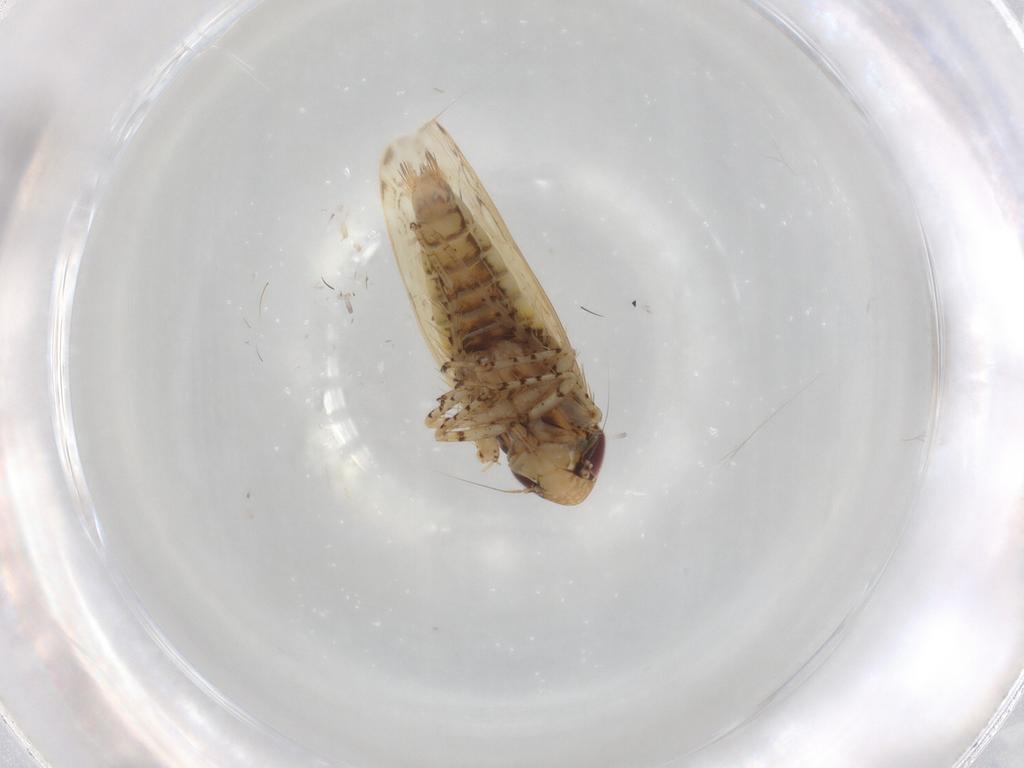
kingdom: Animalia
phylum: Arthropoda
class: Insecta
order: Hemiptera
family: Cicadellidae
